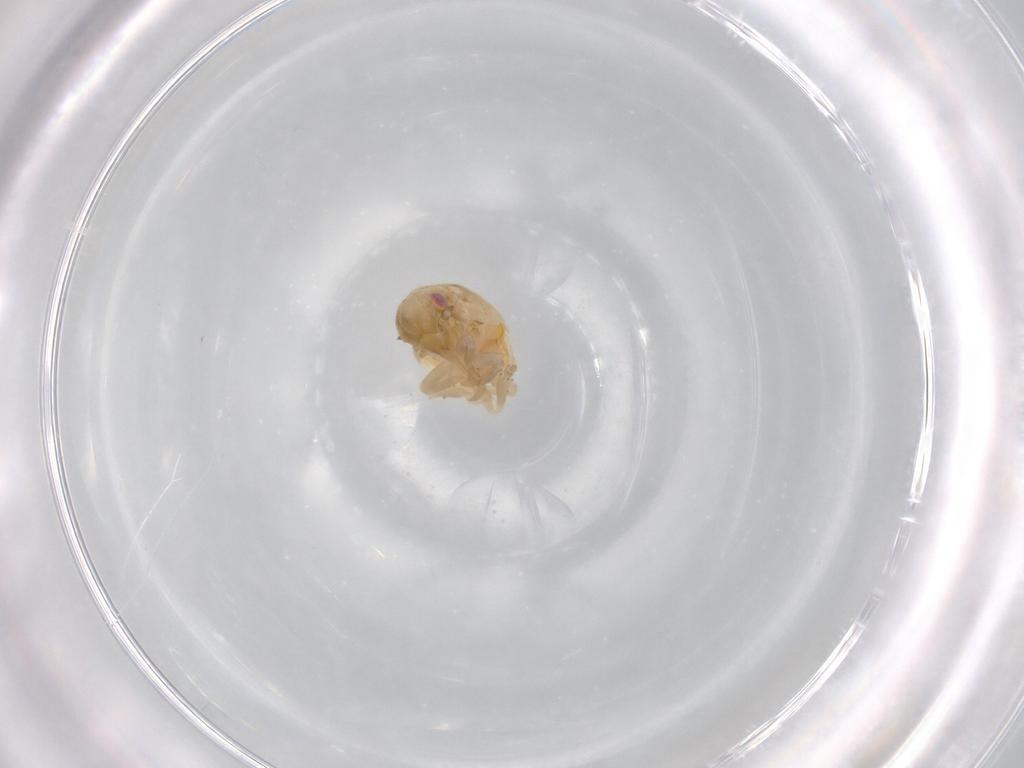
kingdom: Animalia
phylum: Arthropoda
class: Insecta
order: Hemiptera
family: Flatidae
